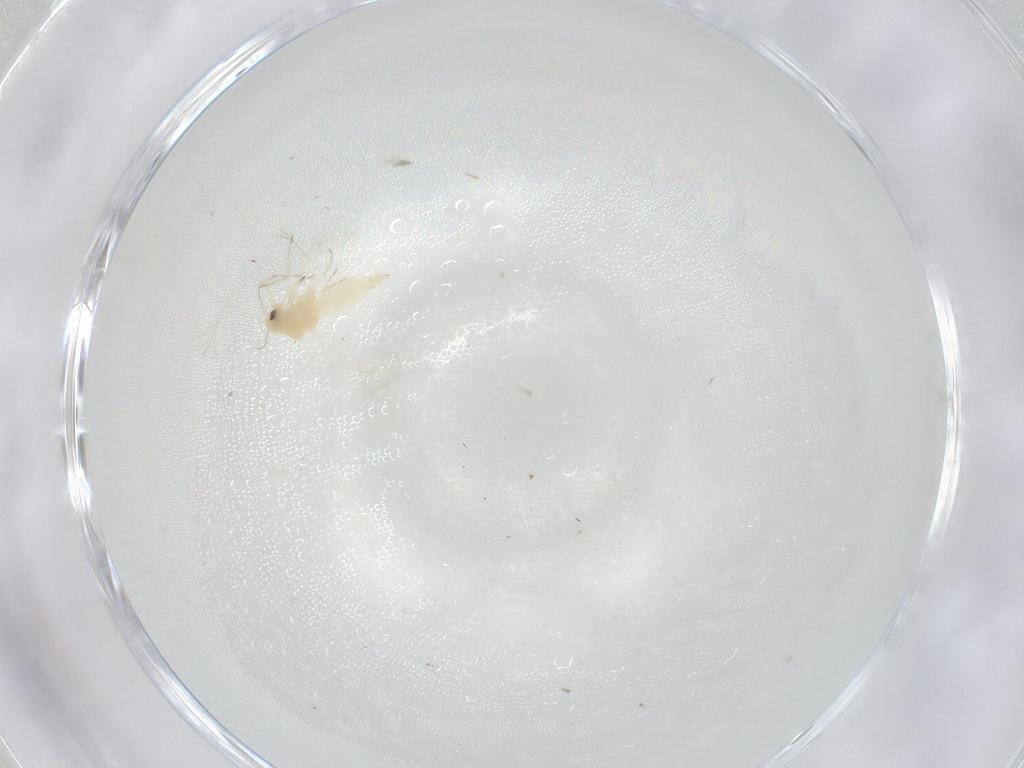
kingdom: Animalia
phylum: Arthropoda
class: Insecta
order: Hemiptera
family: Aleyrodidae
